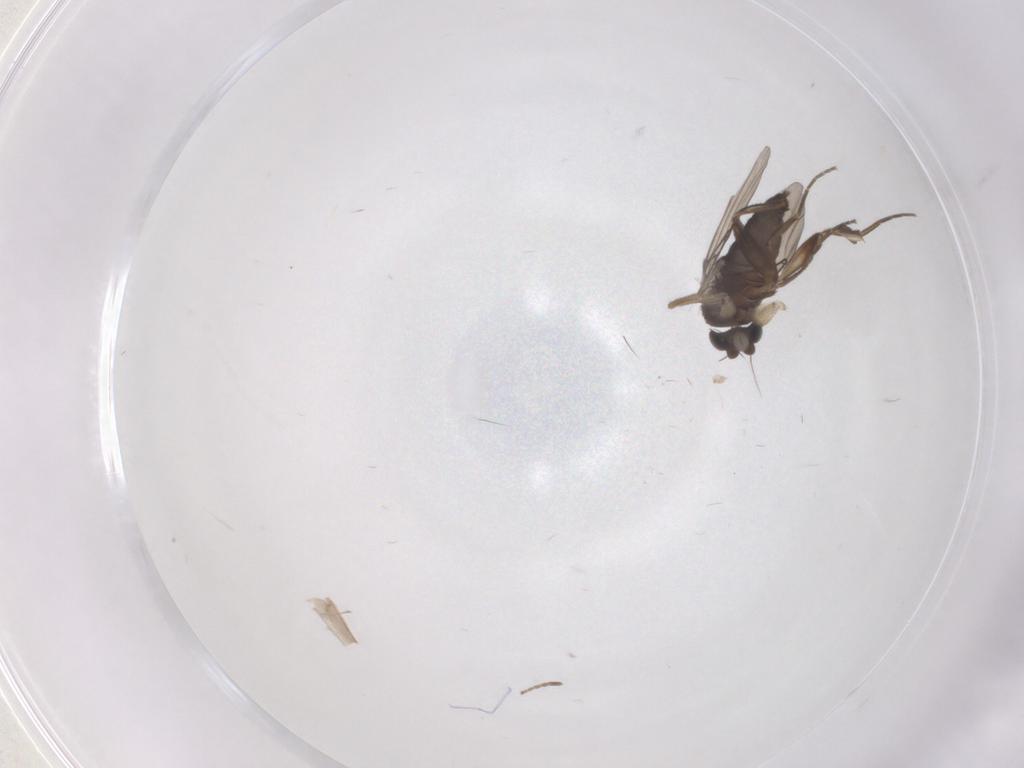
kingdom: Animalia
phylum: Arthropoda
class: Insecta
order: Diptera
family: Phoridae
